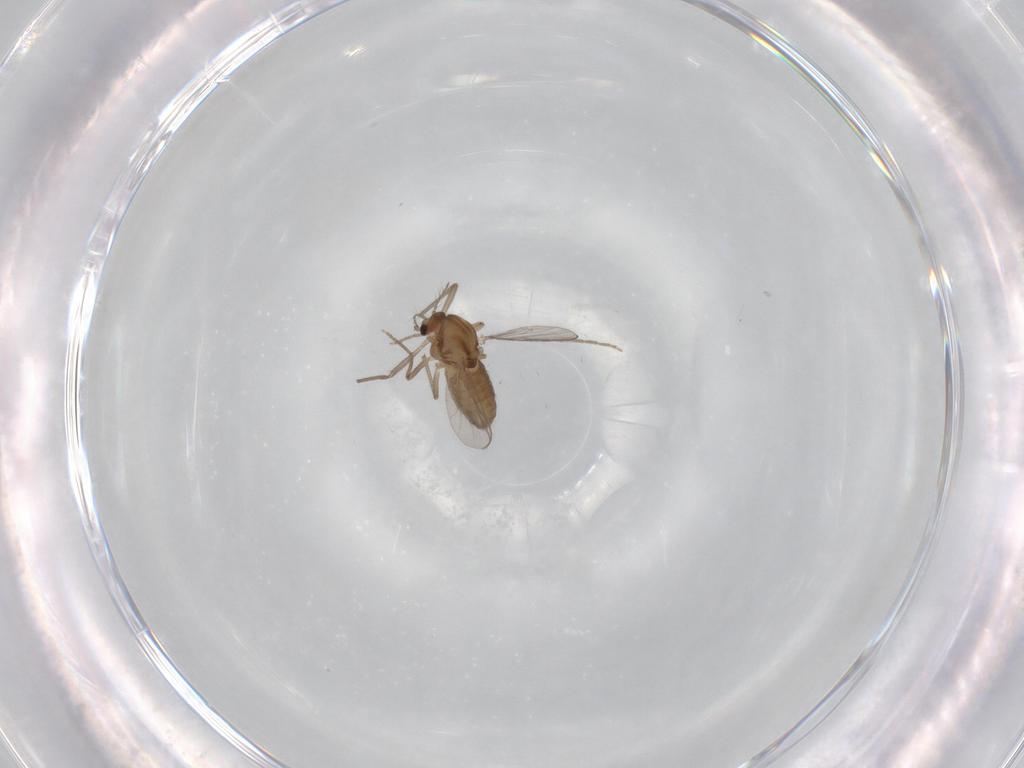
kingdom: Animalia
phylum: Arthropoda
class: Insecta
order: Diptera
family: Chironomidae
